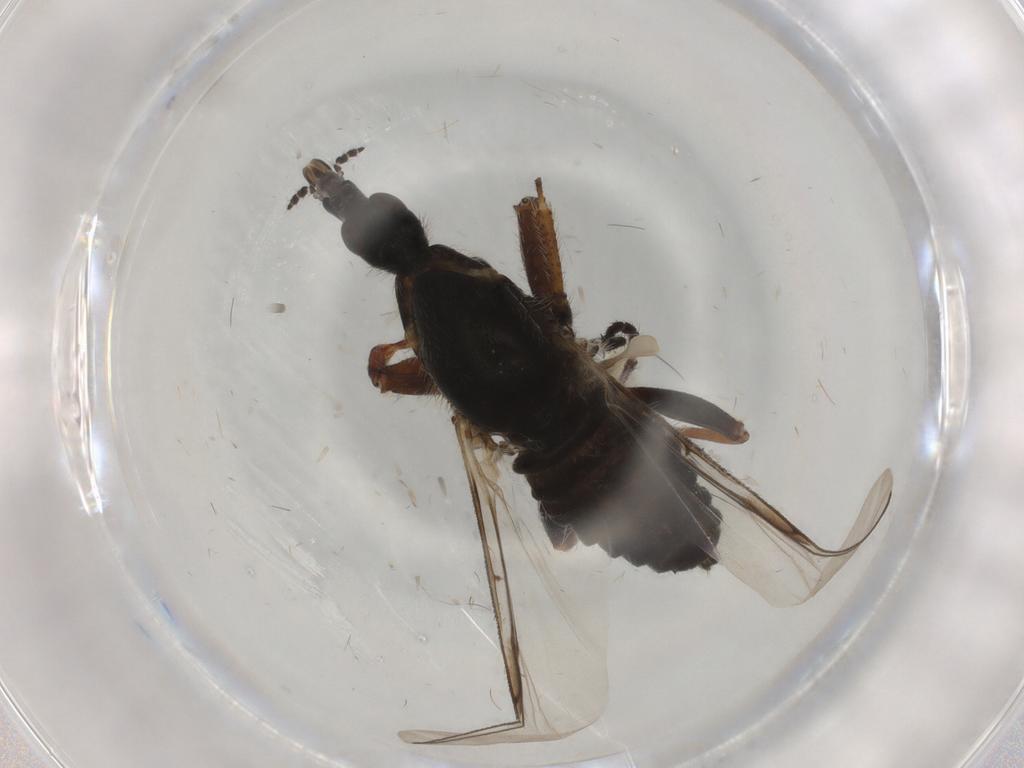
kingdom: Animalia
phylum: Arthropoda
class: Insecta
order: Diptera
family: Bibionidae
